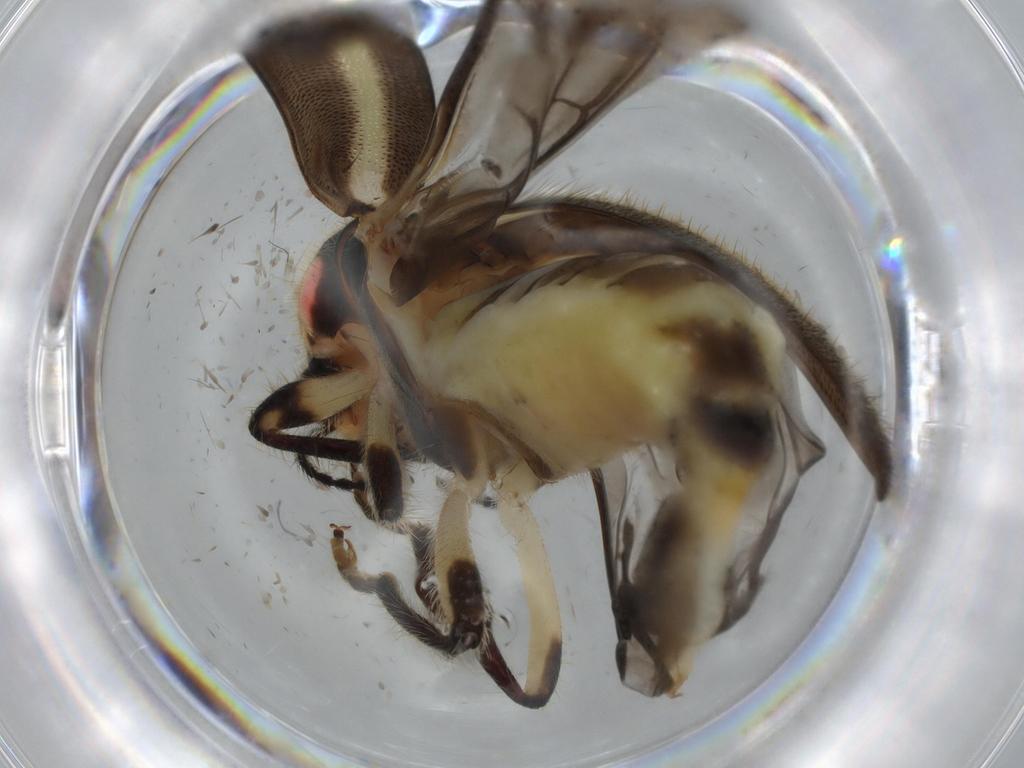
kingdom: Animalia
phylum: Arthropoda
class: Insecta
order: Coleoptera
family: Cleridae
